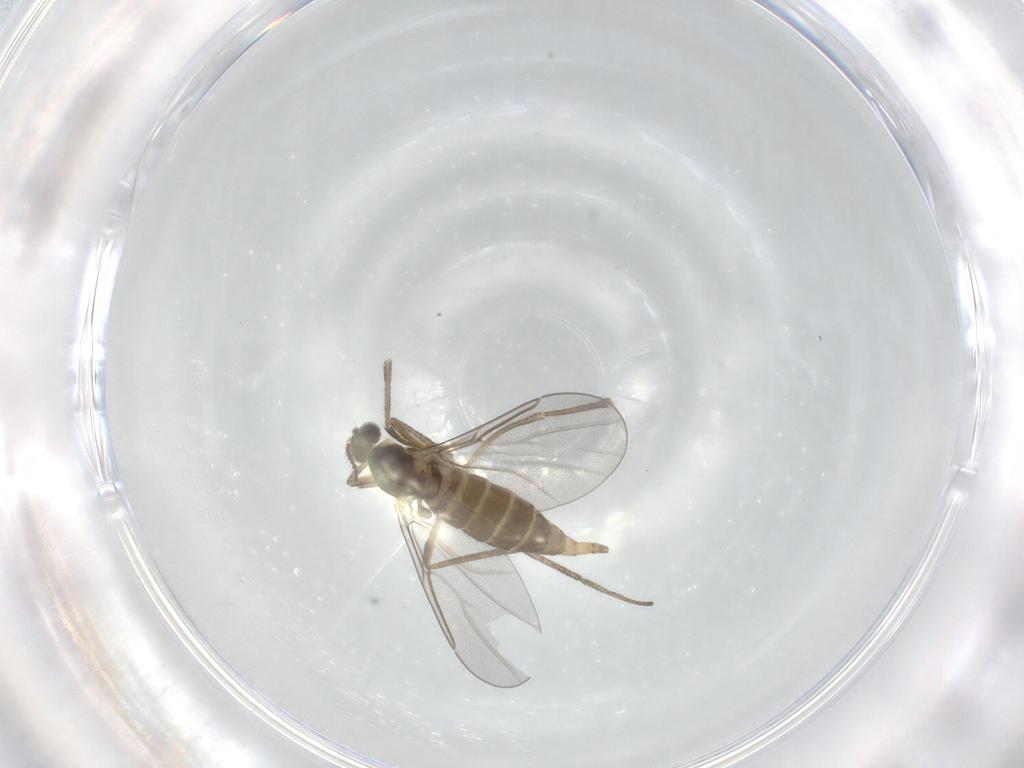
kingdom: Animalia
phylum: Arthropoda
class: Insecta
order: Diptera
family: Cecidomyiidae
